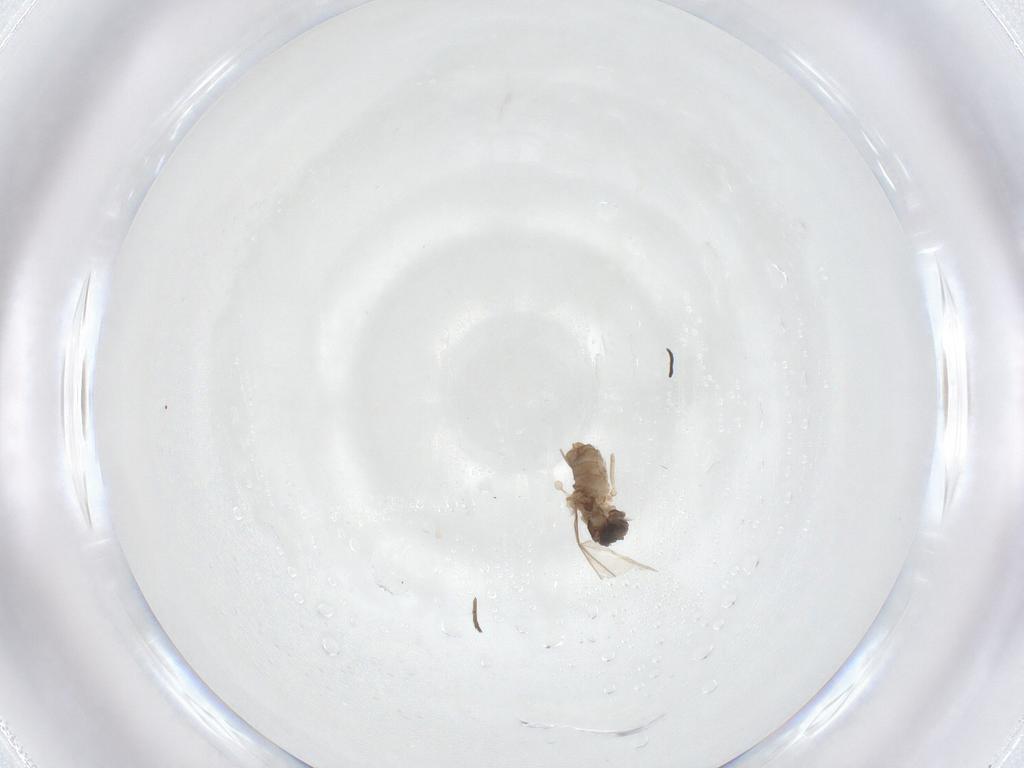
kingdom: Animalia
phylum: Arthropoda
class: Insecta
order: Diptera
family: Cecidomyiidae
